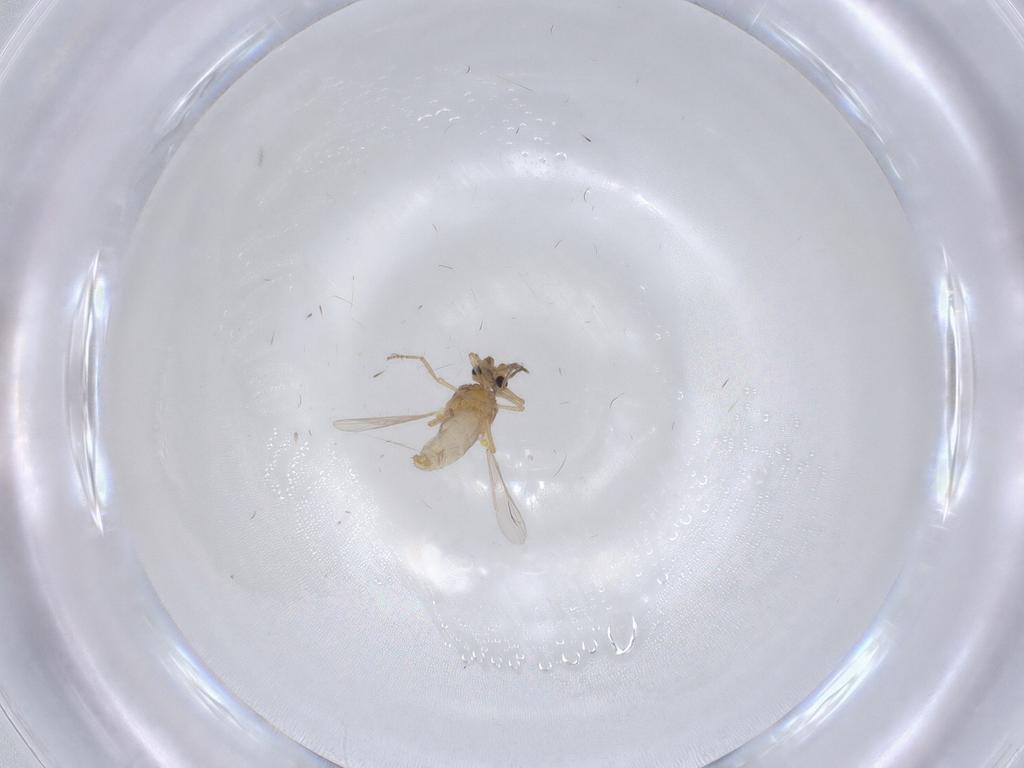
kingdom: Animalia
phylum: Arthropoda
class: Insecta
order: Diptera
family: Ceratopogonidae
